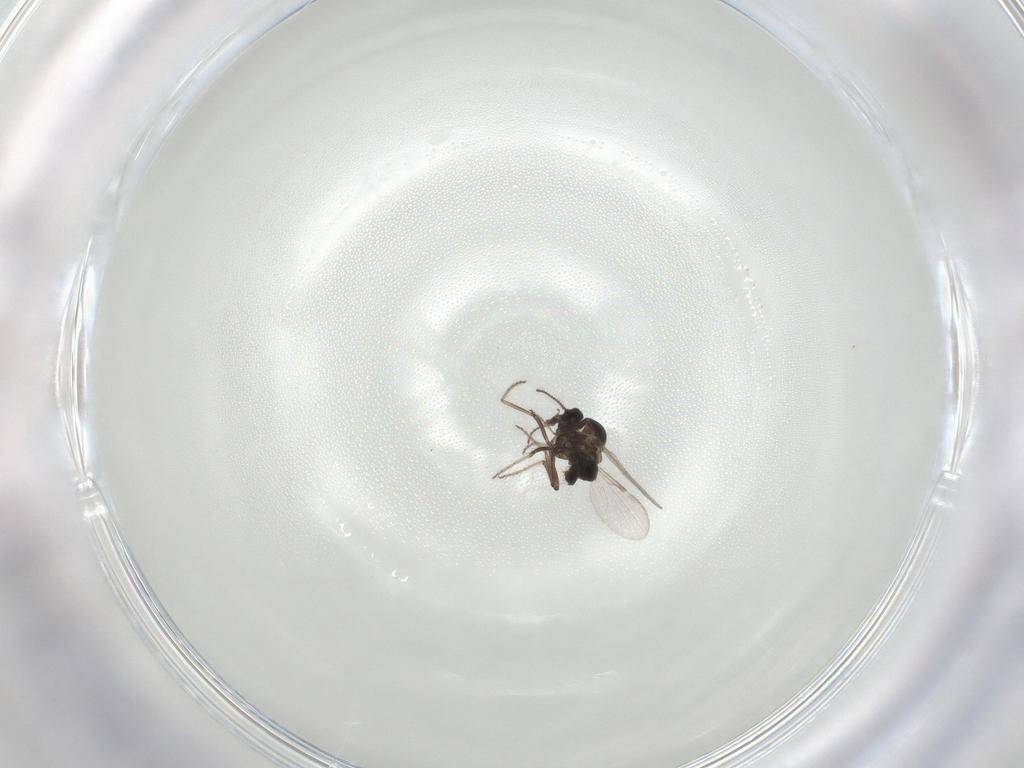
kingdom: Animalia
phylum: Arthropoda
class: Insecta
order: Diptera
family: Ceratopogonidae
